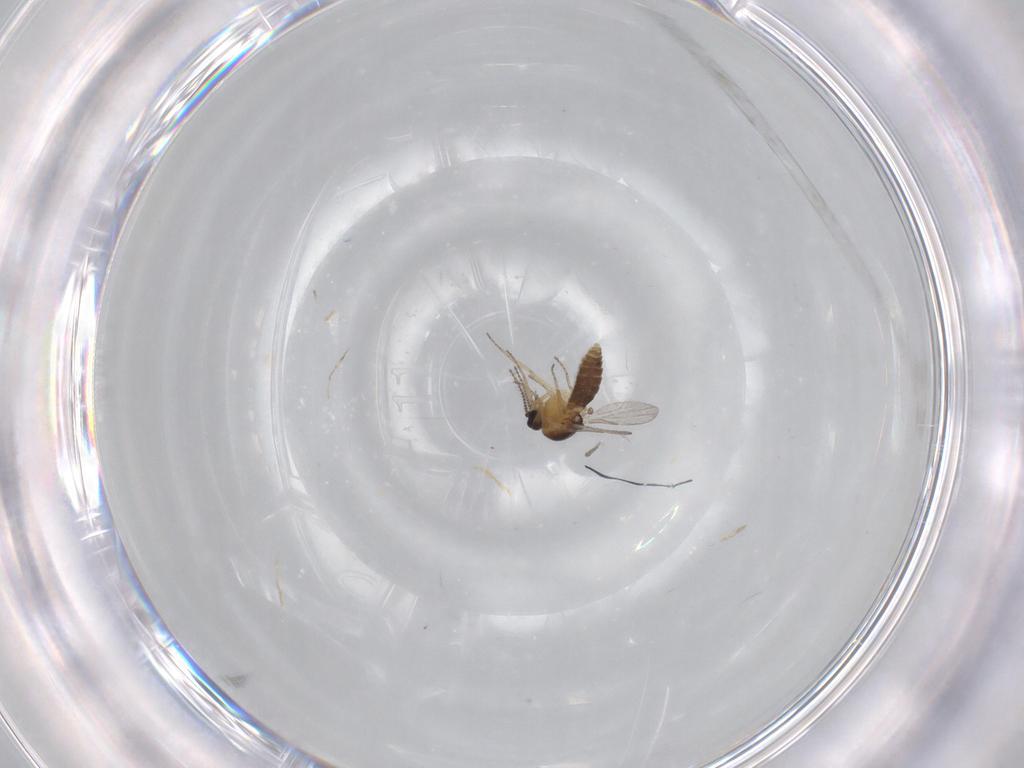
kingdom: Animalia
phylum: Arthropoda
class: Insecta
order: Diptera
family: Ceratopogonidae
